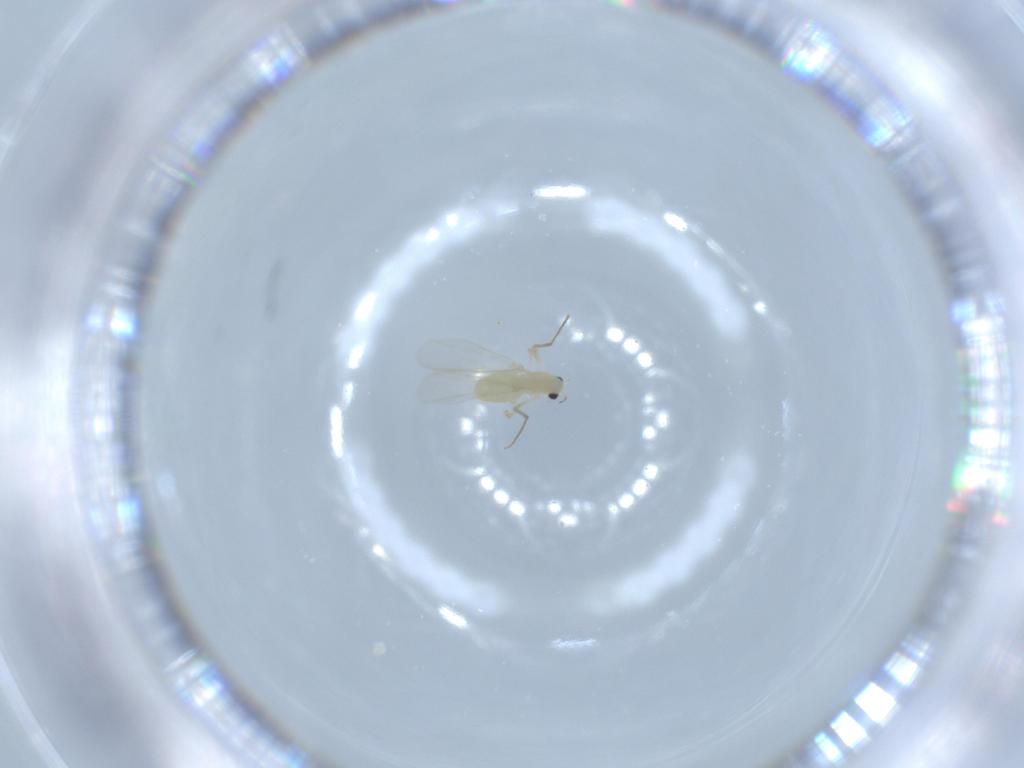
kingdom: Animalia
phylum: Arthropoda
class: Insecta
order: Diptera
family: Chironomidae
